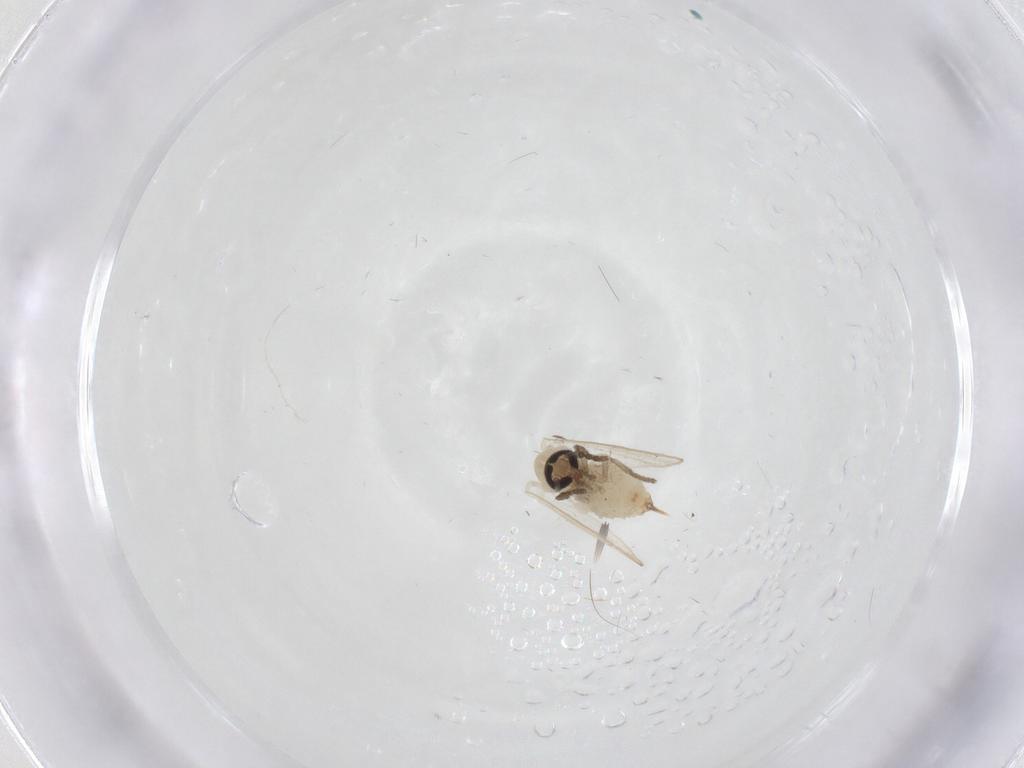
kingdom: Animalia
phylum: Arthropoda
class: Insecta
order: Diptera
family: Psychodidae
